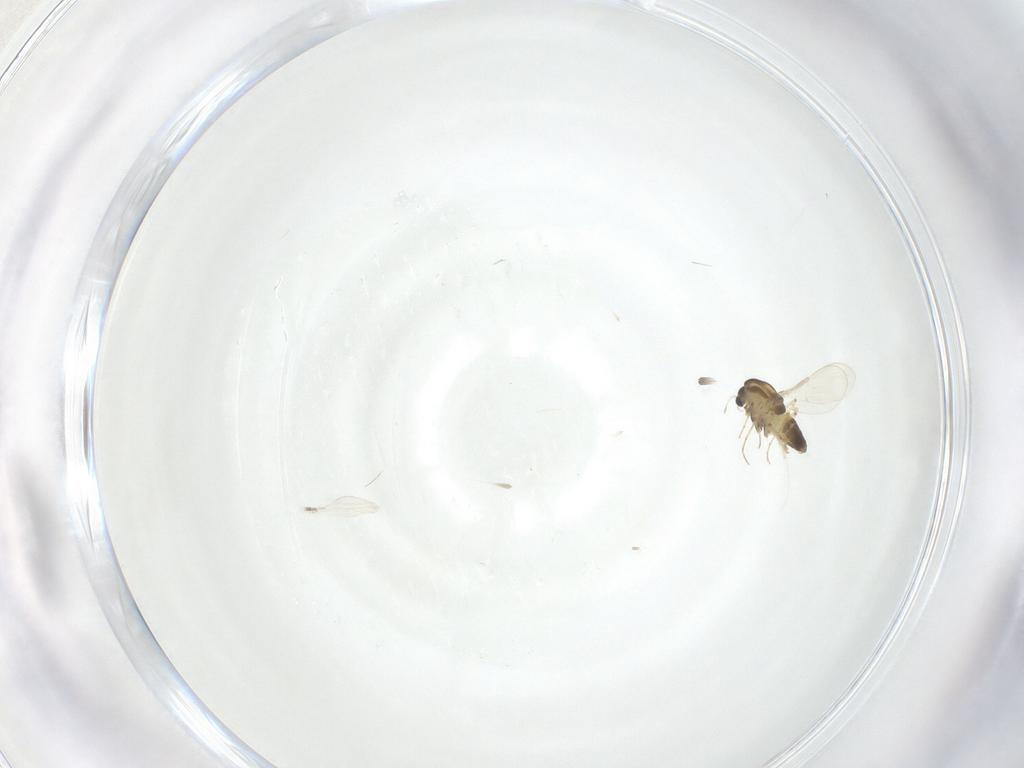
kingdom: Animalia
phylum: Arthropoda
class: Insecta
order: Diptera
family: Chironomidae
